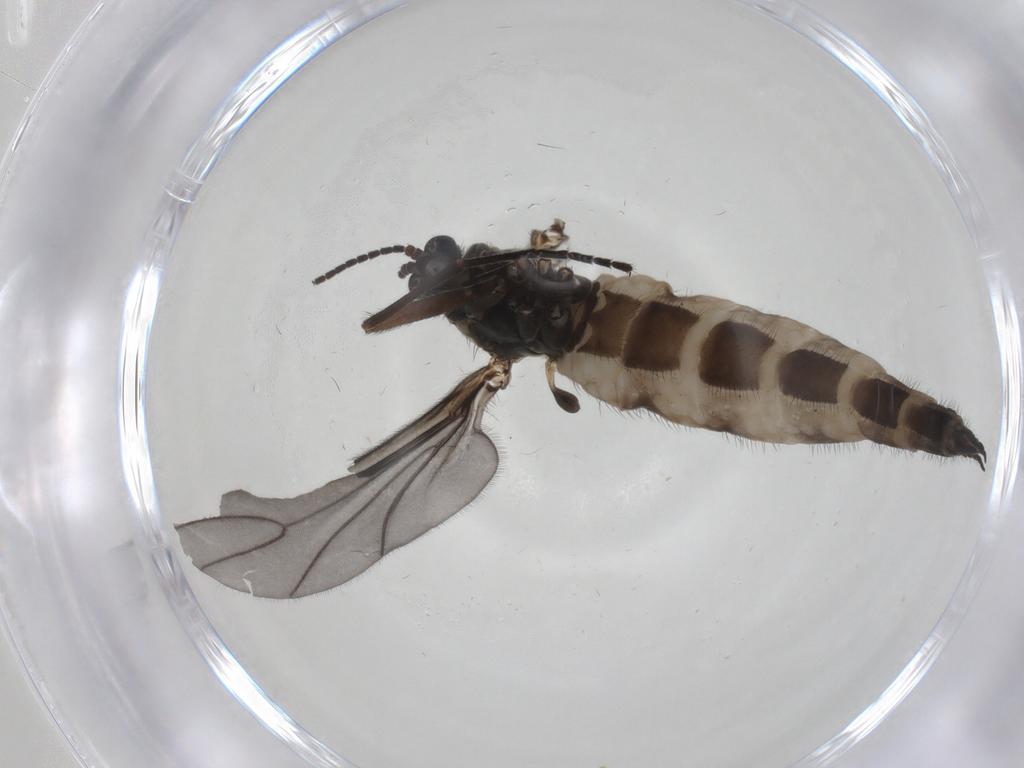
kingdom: Animalia
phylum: Arthropoda
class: Insecta
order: Diptera
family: Sciaridae
